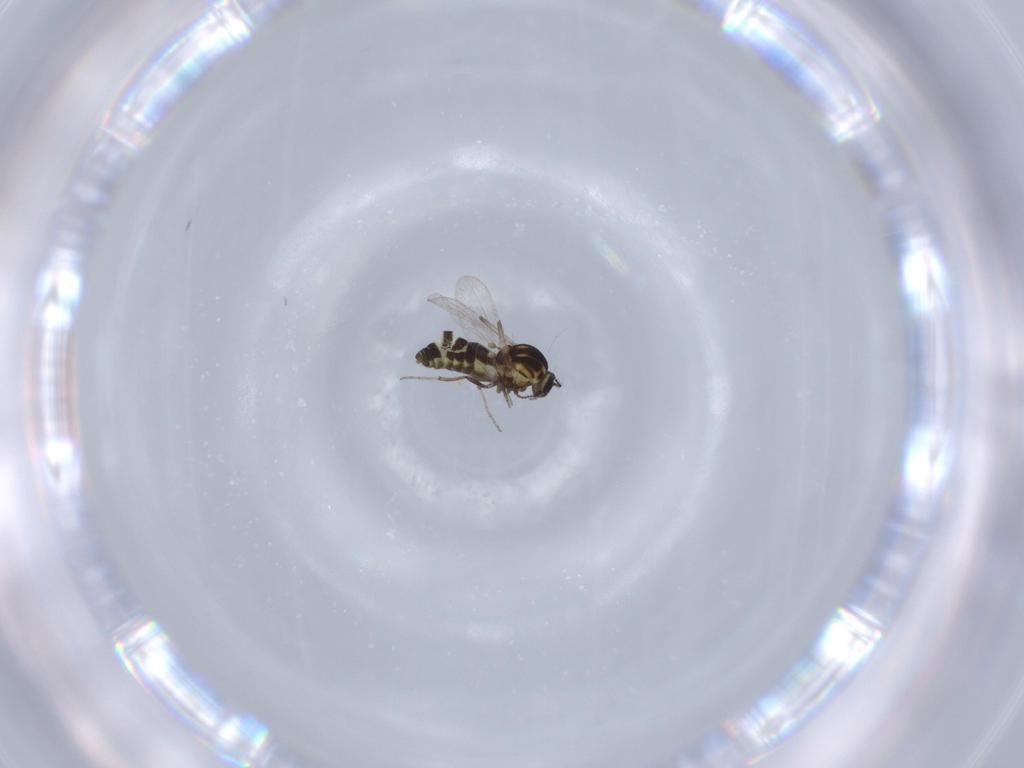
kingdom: Animalia
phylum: Arthropoda
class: Insecta
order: Diptera
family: Ceratopogonidae
